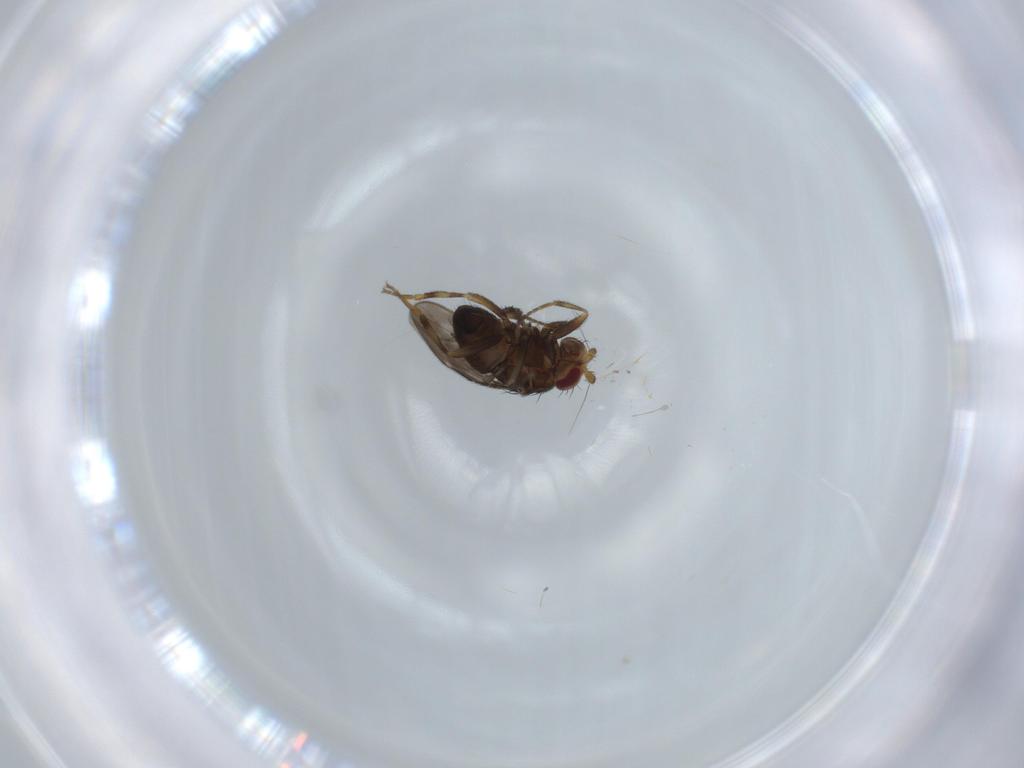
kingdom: Animalia
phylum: Arthropoda
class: Insecta
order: Diptera
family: Sphaeroceridae
